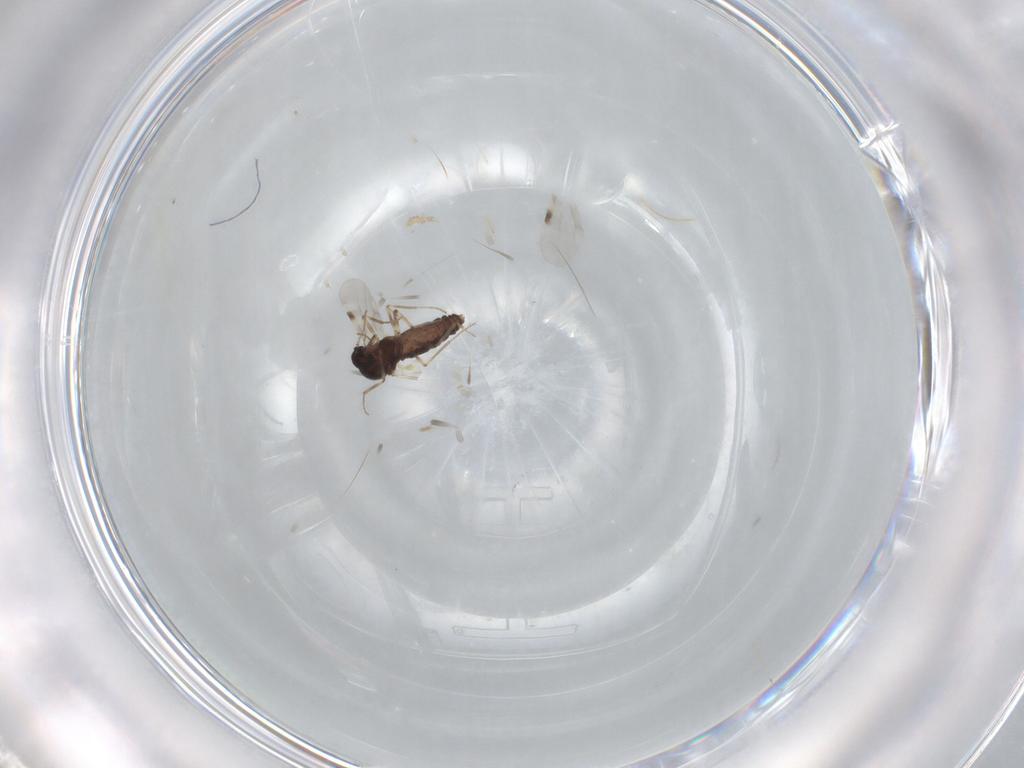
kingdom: Animalia
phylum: Arthropoda
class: Insecta
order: Diptera
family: Sciaridae
